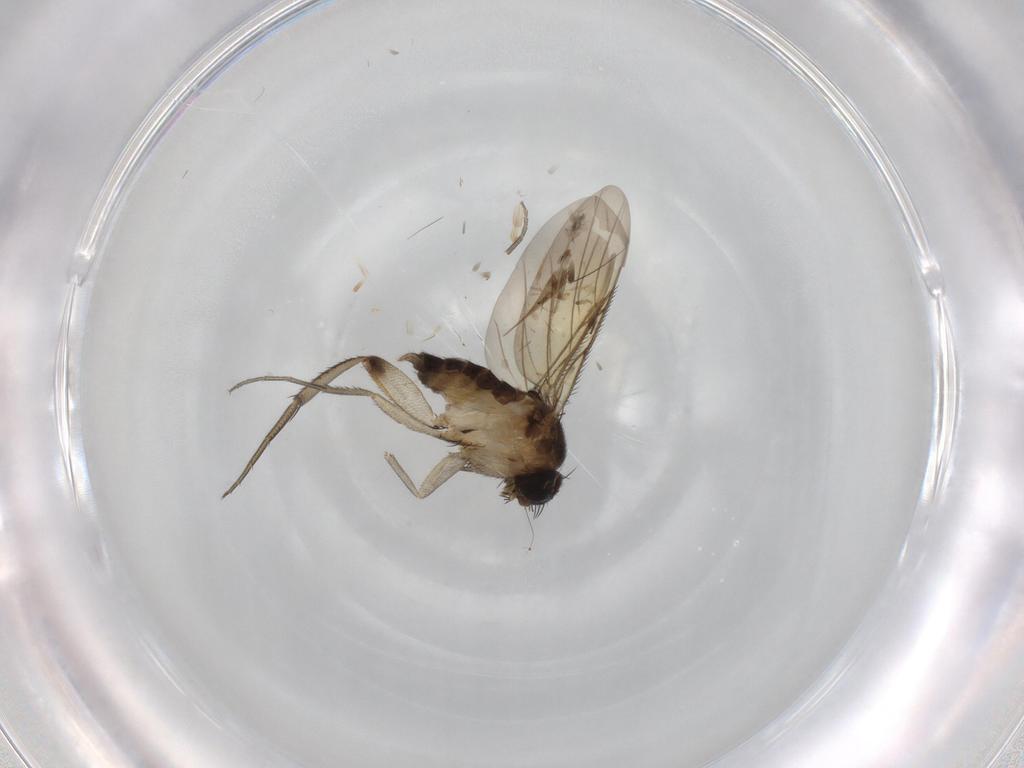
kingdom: Animalia
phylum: Arthropoda
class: Insecta
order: Diptera
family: Phoridae
